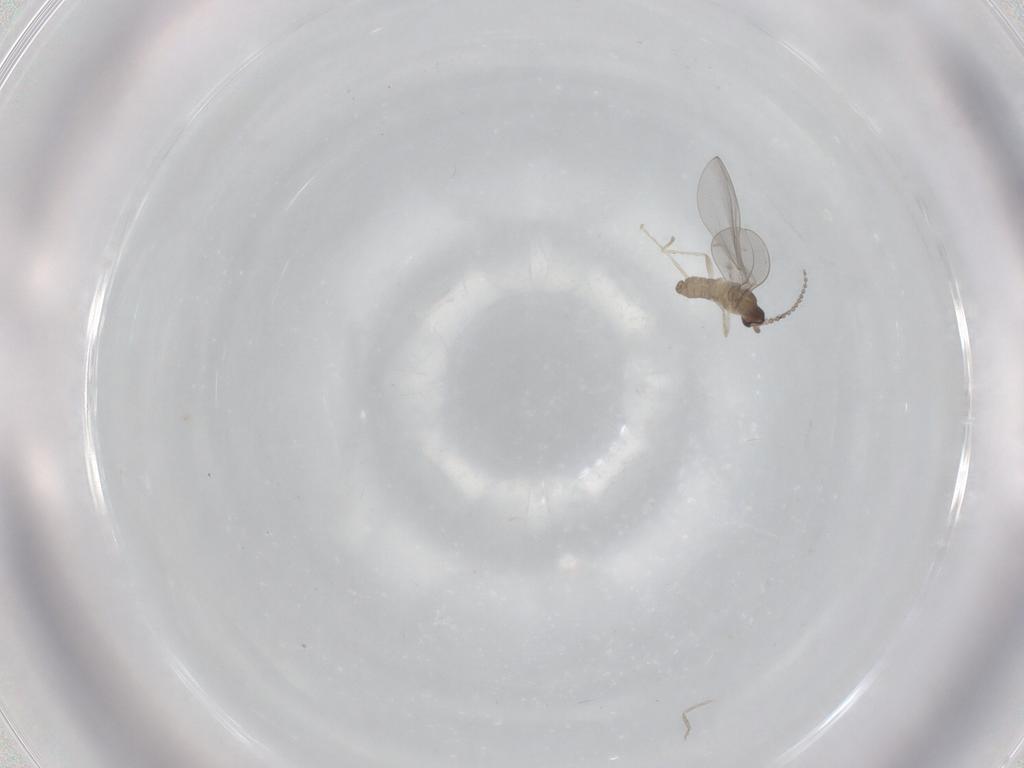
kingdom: Animalia
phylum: Arthropoda
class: Insecta
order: Diptera
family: Cecidomyiidae
